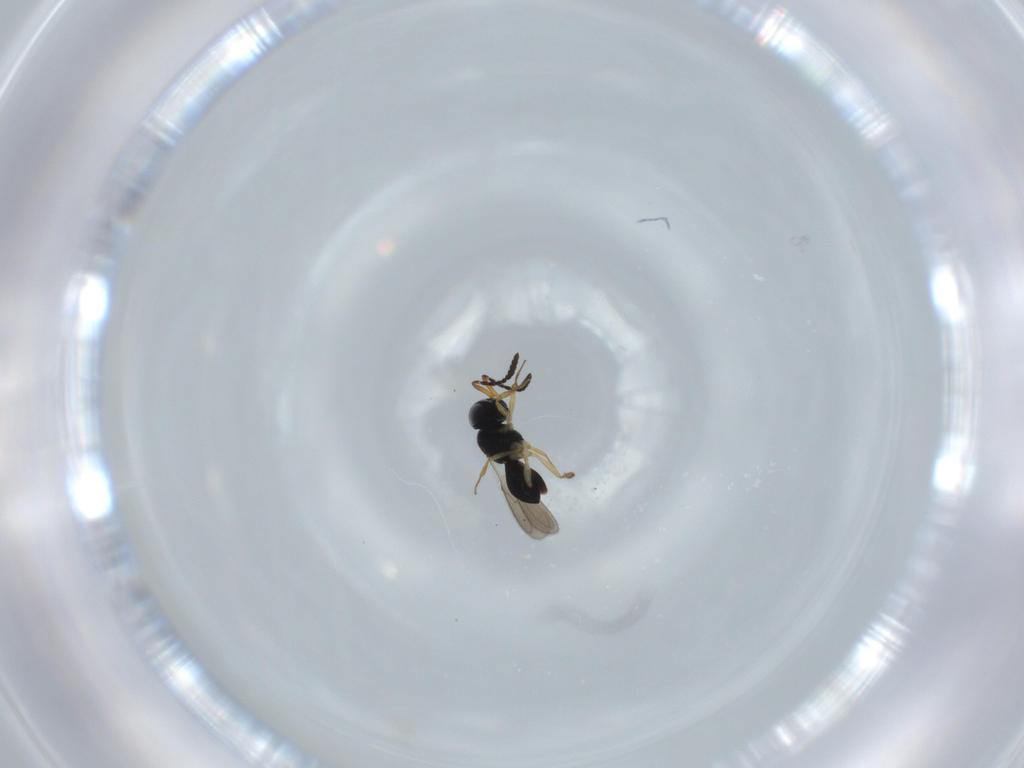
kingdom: Animalia
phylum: Arthropoda
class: Insecta
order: Hymenoptera
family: Scelionidae
